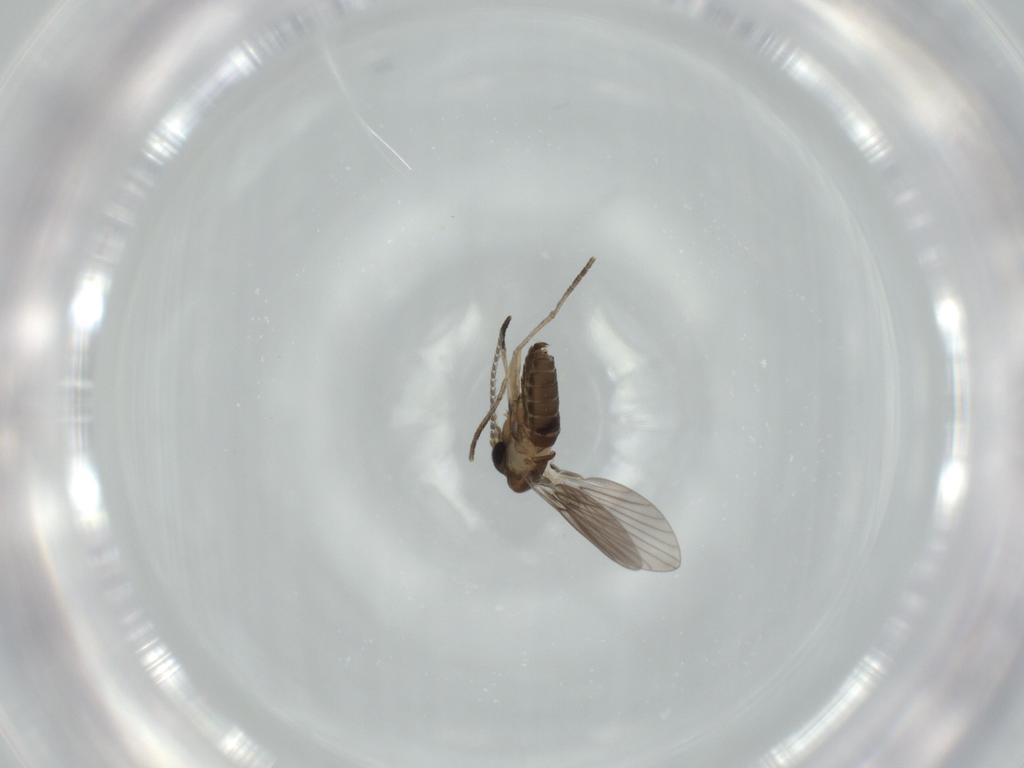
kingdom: Animalia
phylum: Arthropoda
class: Insecta
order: Diptera
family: Psychodidae
